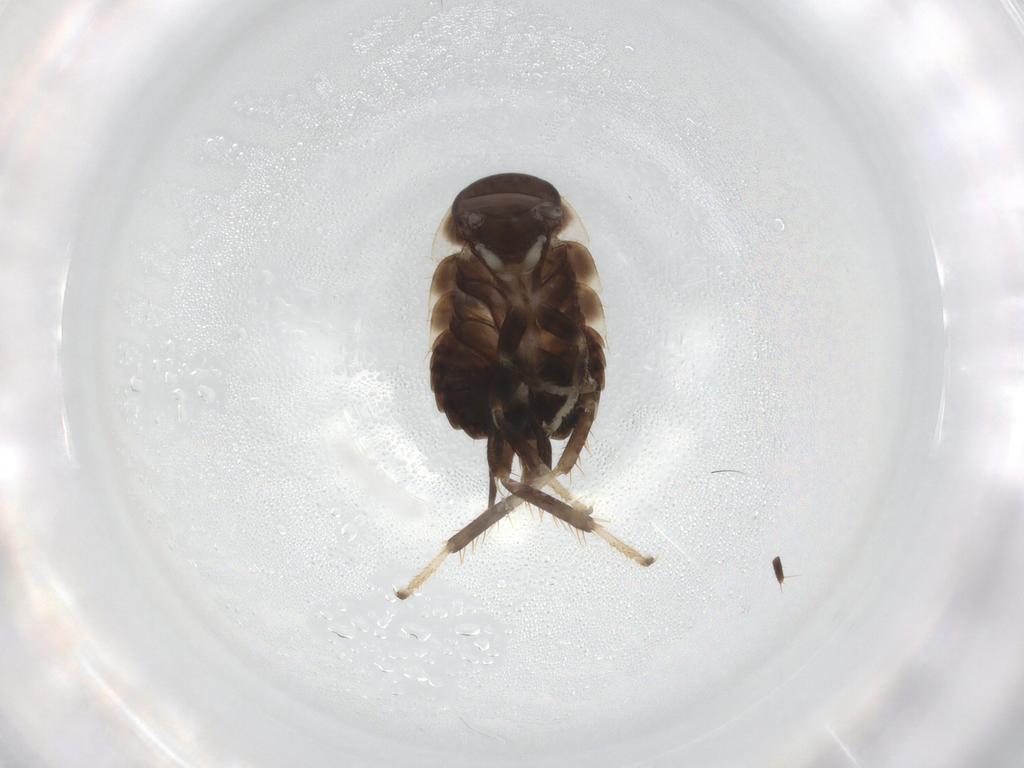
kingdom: Animalia
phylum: Arthropoda
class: Insecta
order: Blattodea
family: Blaberidae
